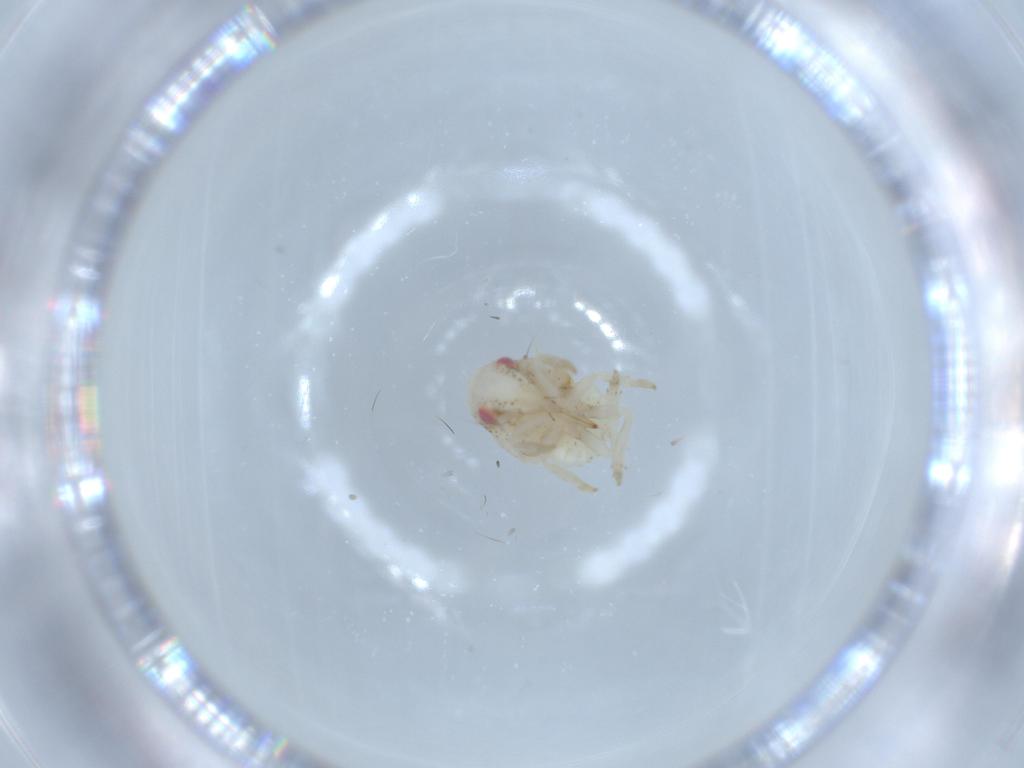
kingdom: Animalia
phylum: Arthropoda
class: Insecta
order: Hemiptera
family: Acanaloniidae
